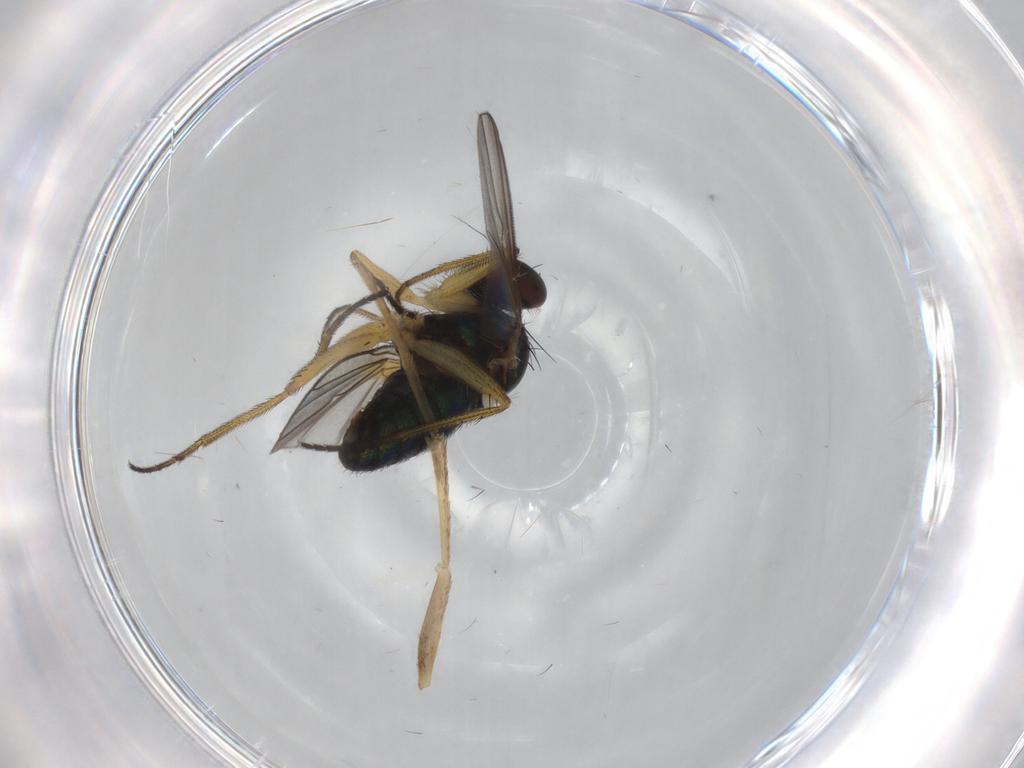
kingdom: Animalia
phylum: Arthropoda
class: Insecta
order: Diptera
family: Dolichopodidae
